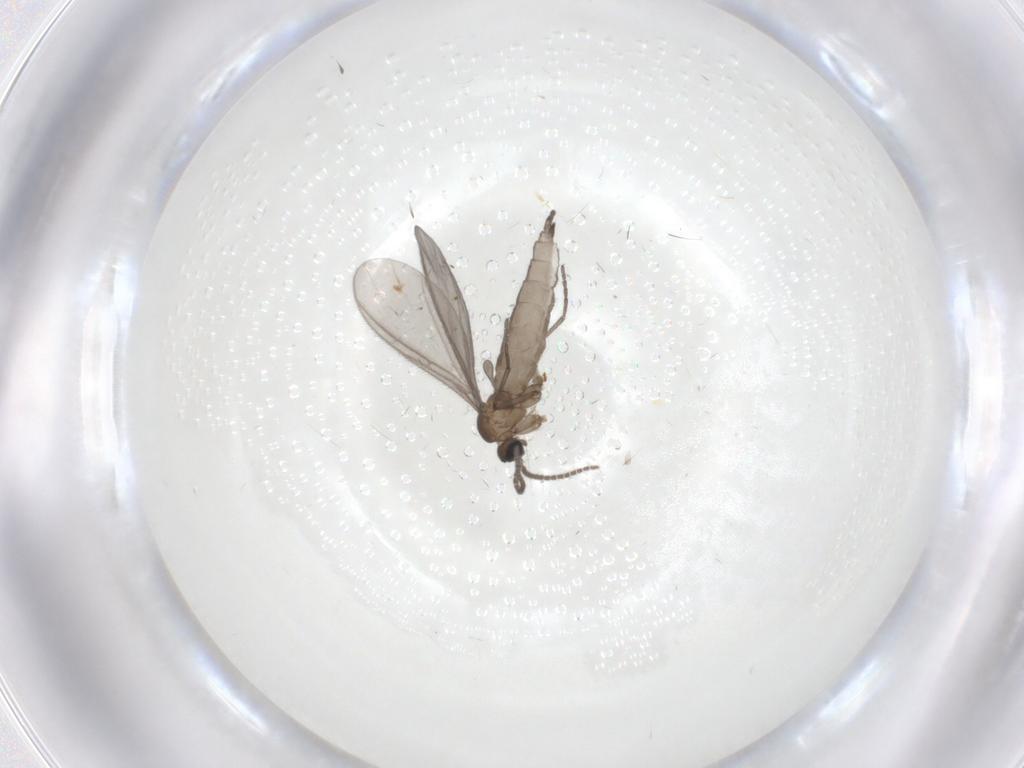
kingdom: Animalia
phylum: Arthropoda
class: Insecta
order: Diptera
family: Sciaridae
